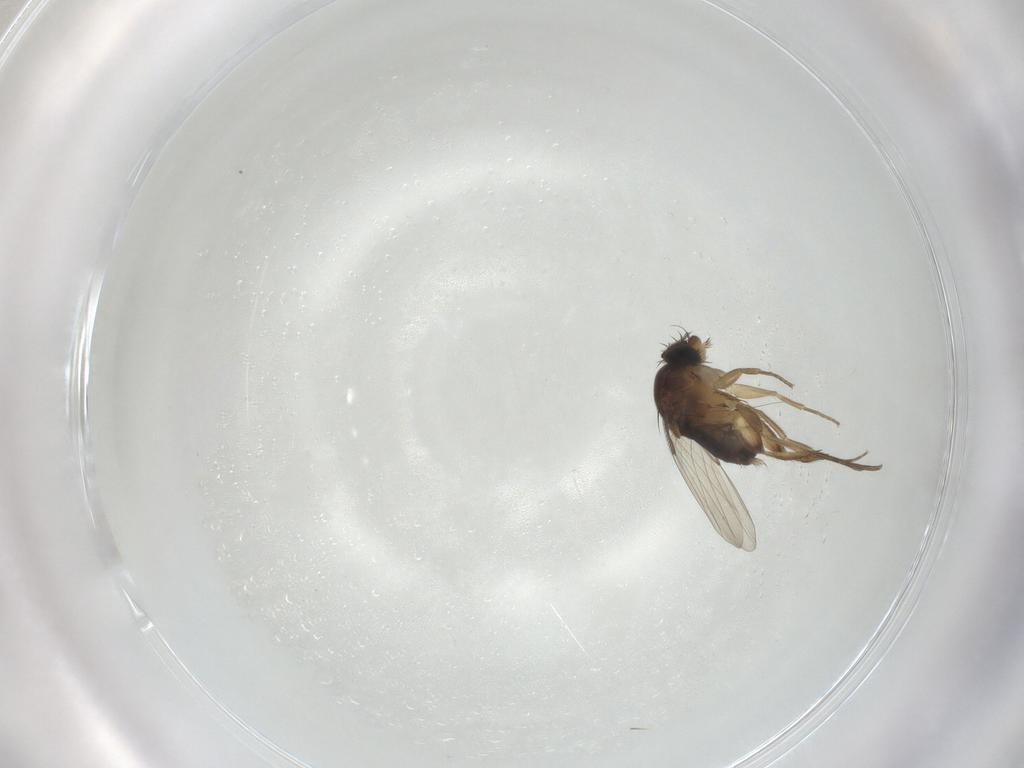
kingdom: Animalia
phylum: Arthropoda
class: Insecta
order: Diptera
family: Phoridae
